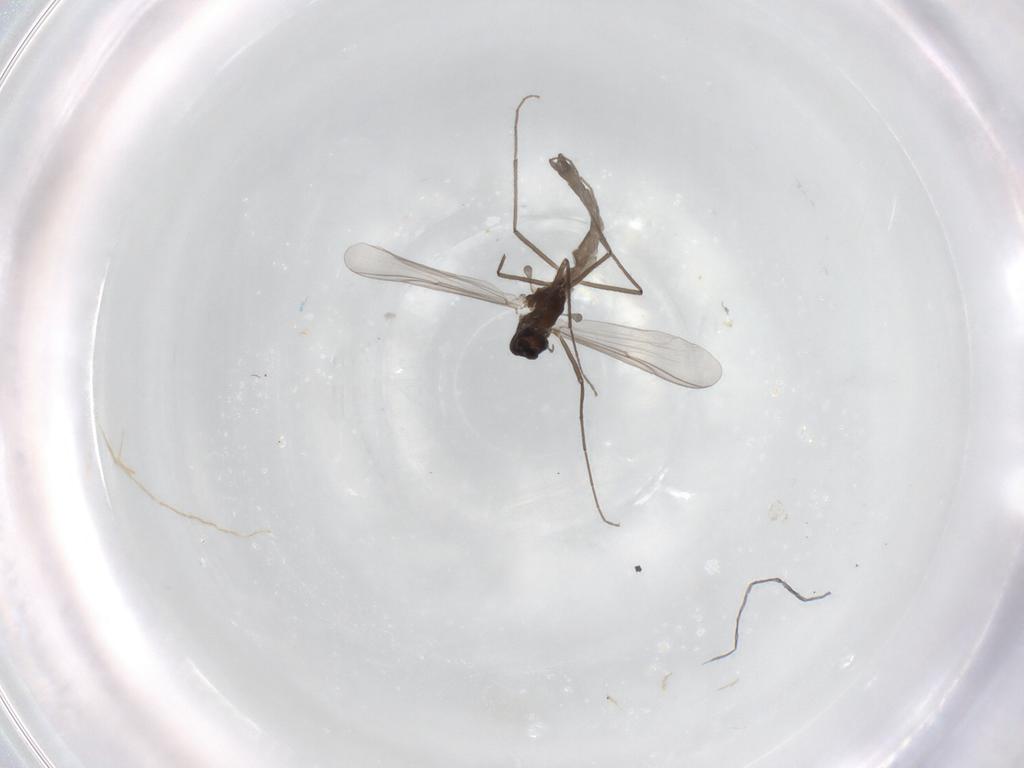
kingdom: Animalia
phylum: Arthropoda
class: Insecta
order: Diptera
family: Chironomidae
